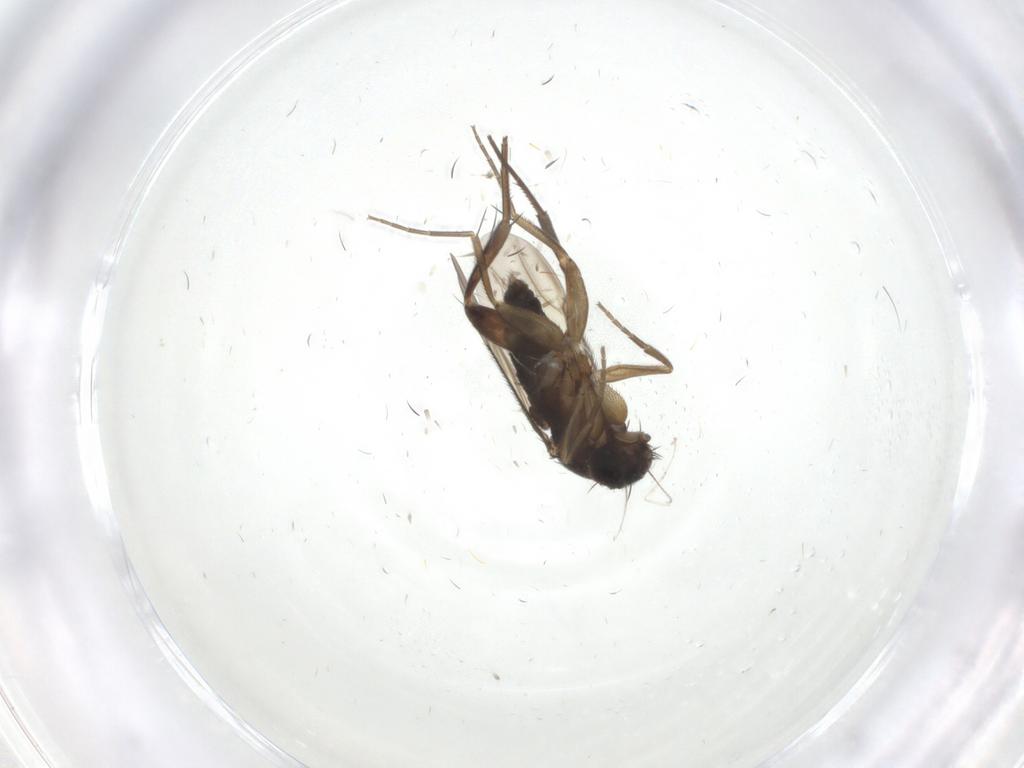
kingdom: Animalia
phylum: Arthropoda
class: Insecta
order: Diptera
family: Phoridae
